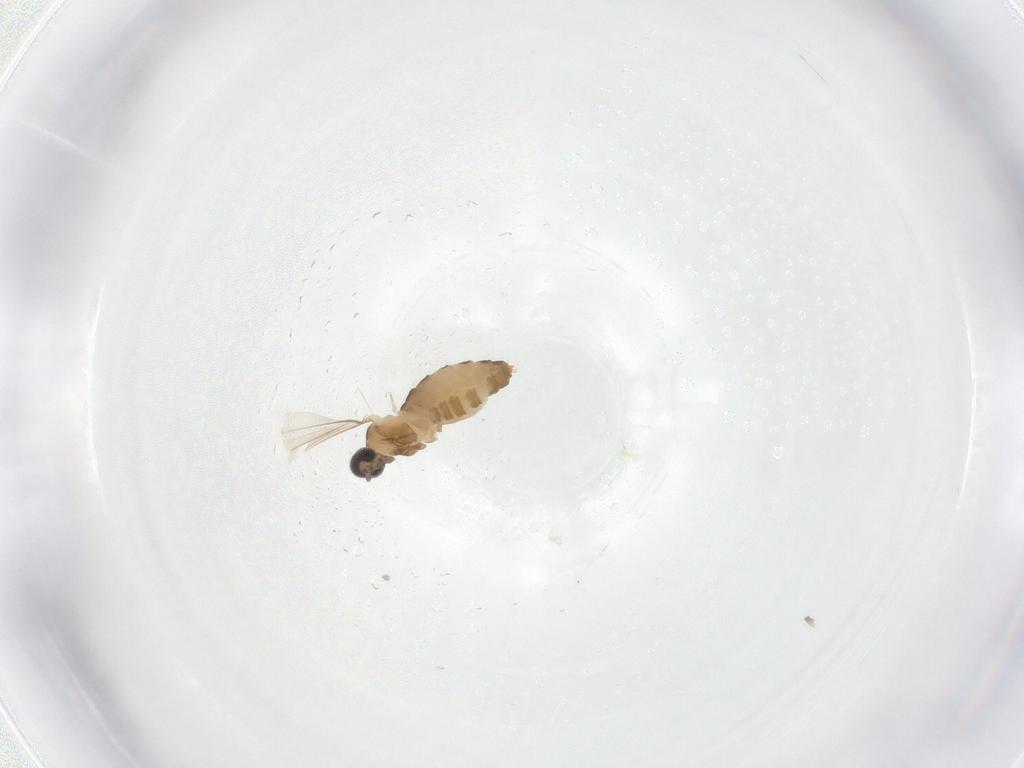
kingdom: Animalia
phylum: Arthropoda
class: Insecta
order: Diptera
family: Cecidomyiidae
